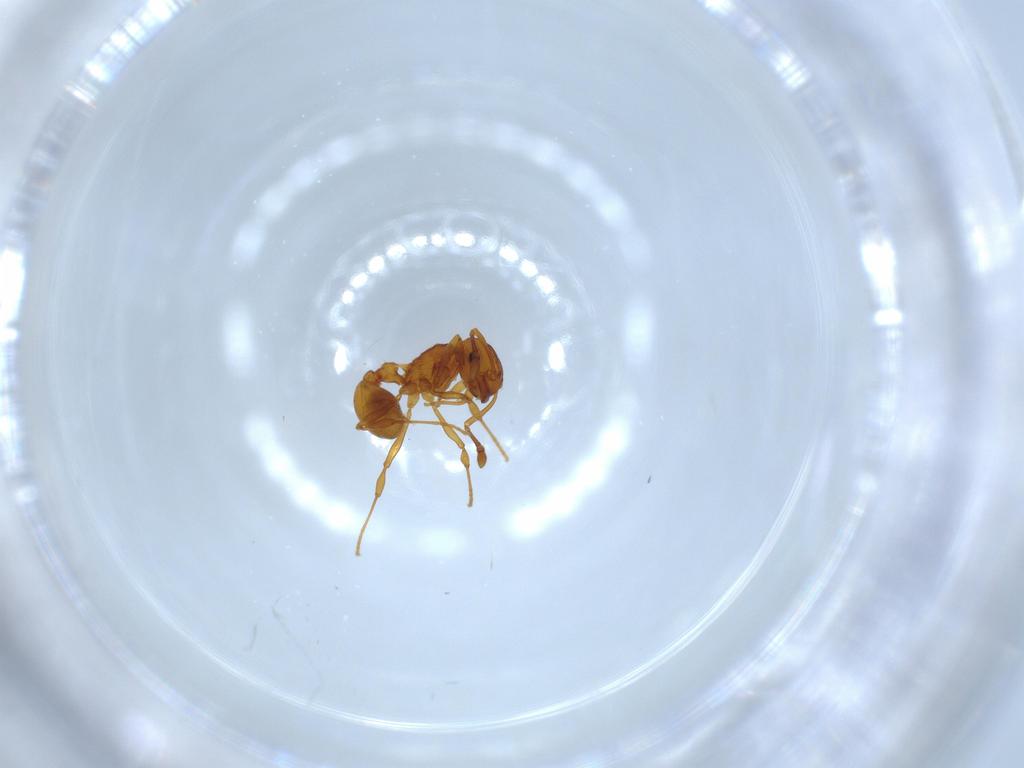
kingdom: Animalia
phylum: Arthropoda
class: Insecta
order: Hymenoptera
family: Formicidae
